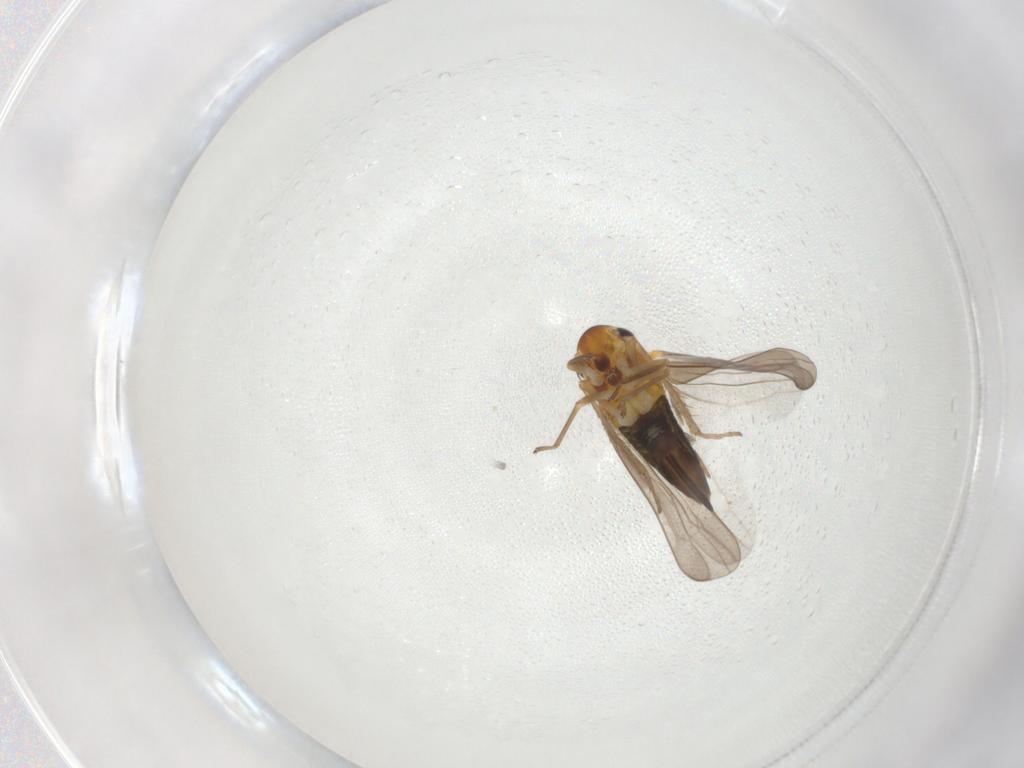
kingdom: Animalia
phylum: Arthropoda
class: Insecta
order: Hemiptera
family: Cicadellidae
